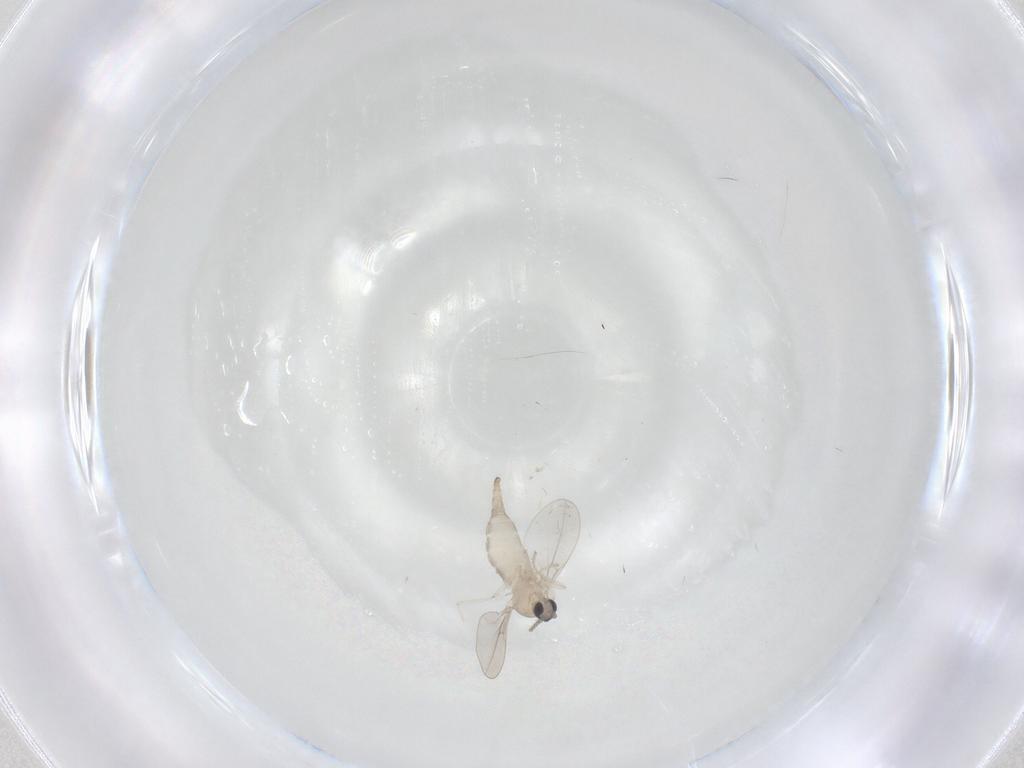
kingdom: Animalia
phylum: Arthropoda
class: Insecta
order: Diptera
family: Cecidomyiidae
